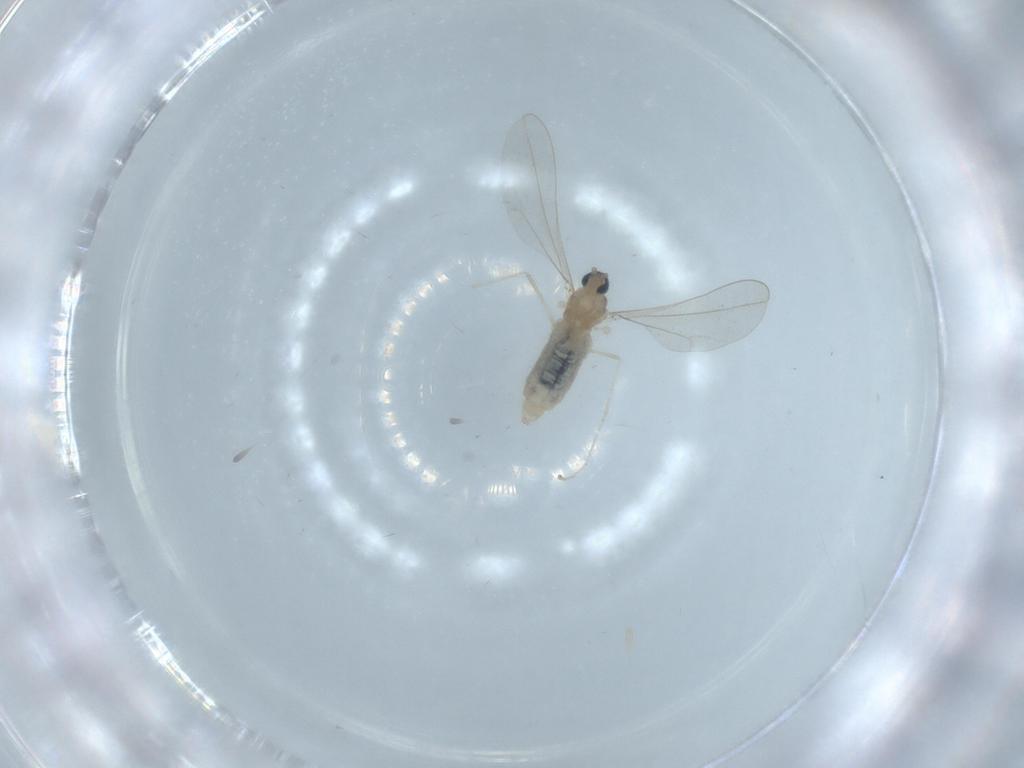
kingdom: Animalia
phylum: Arthropoda
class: Insecta
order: Diptera
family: Cecidomyiidae
